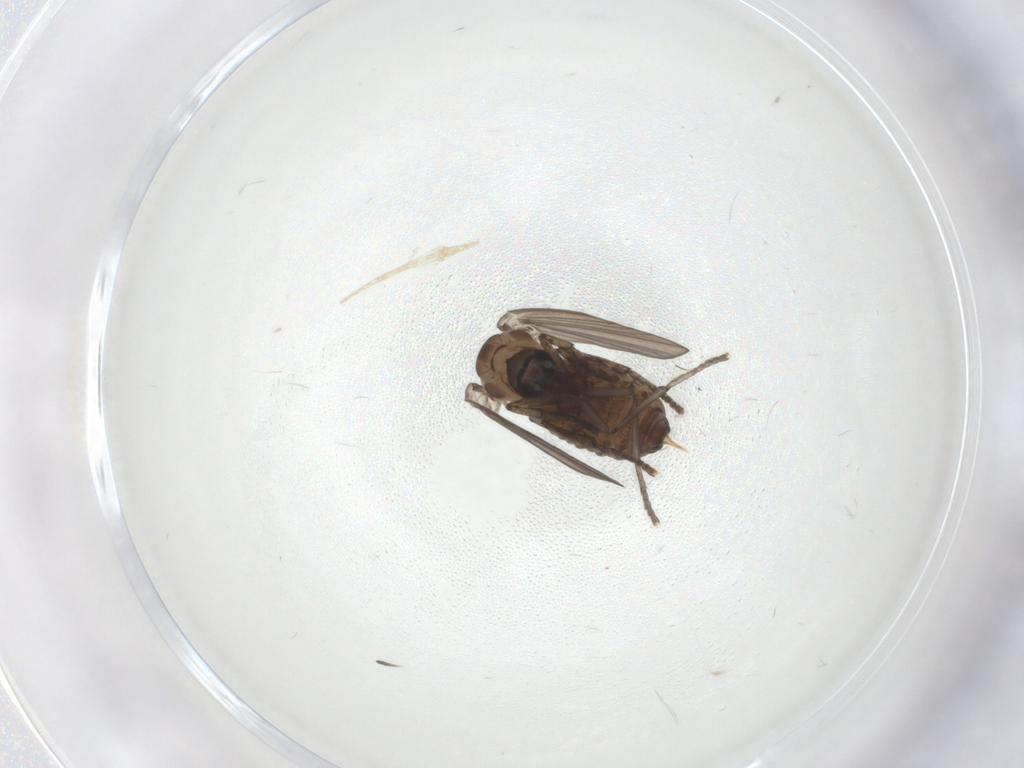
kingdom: Animalia
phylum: Arthropoda
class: Insecta
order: Diptera
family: Psychodidae
